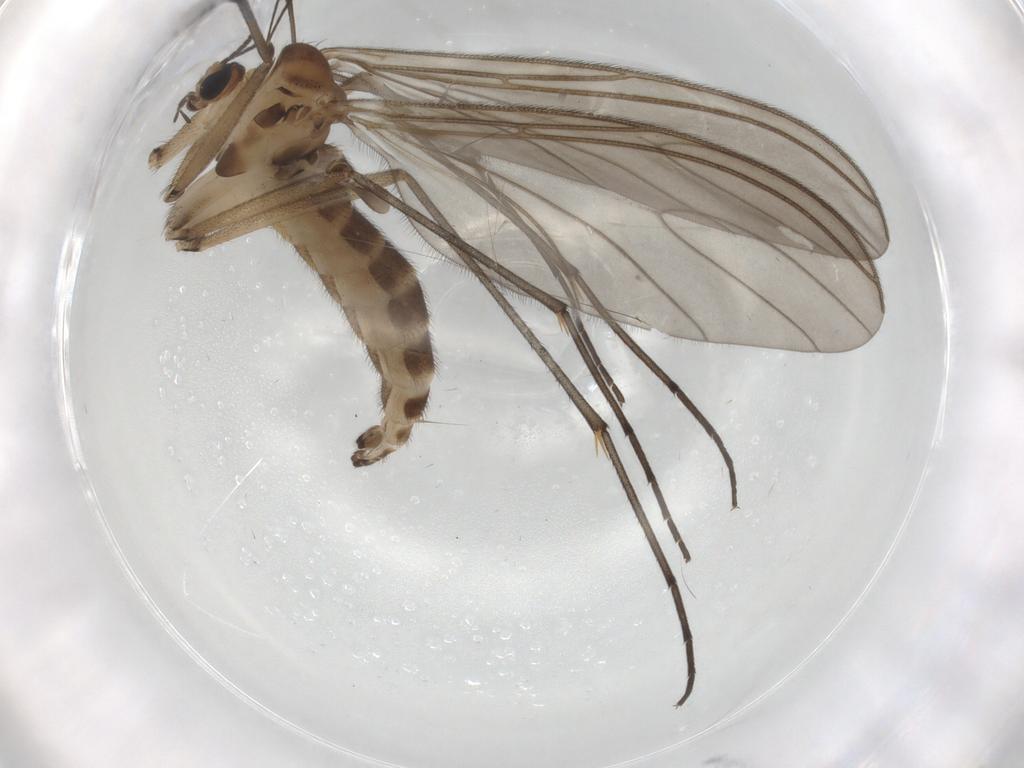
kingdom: Animalia
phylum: Arthropoda
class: Insecta
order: Diptera
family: Sciaridae
